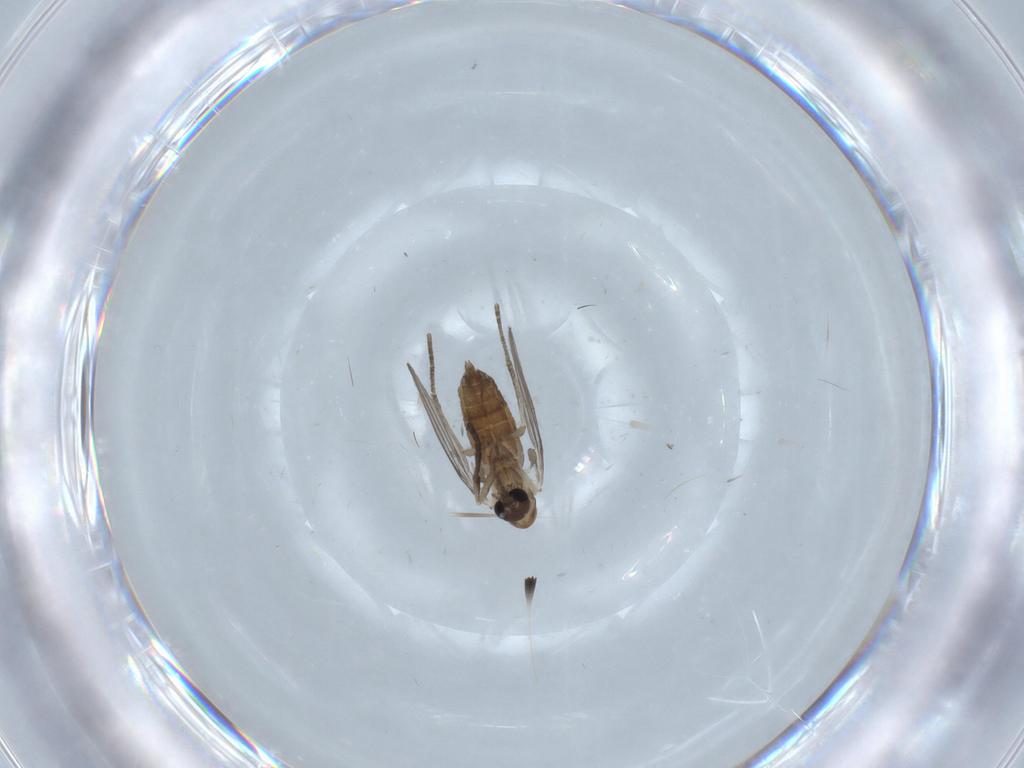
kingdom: Animalia
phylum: Arthropoda
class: Insecta
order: Diptera
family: Psychodidae
